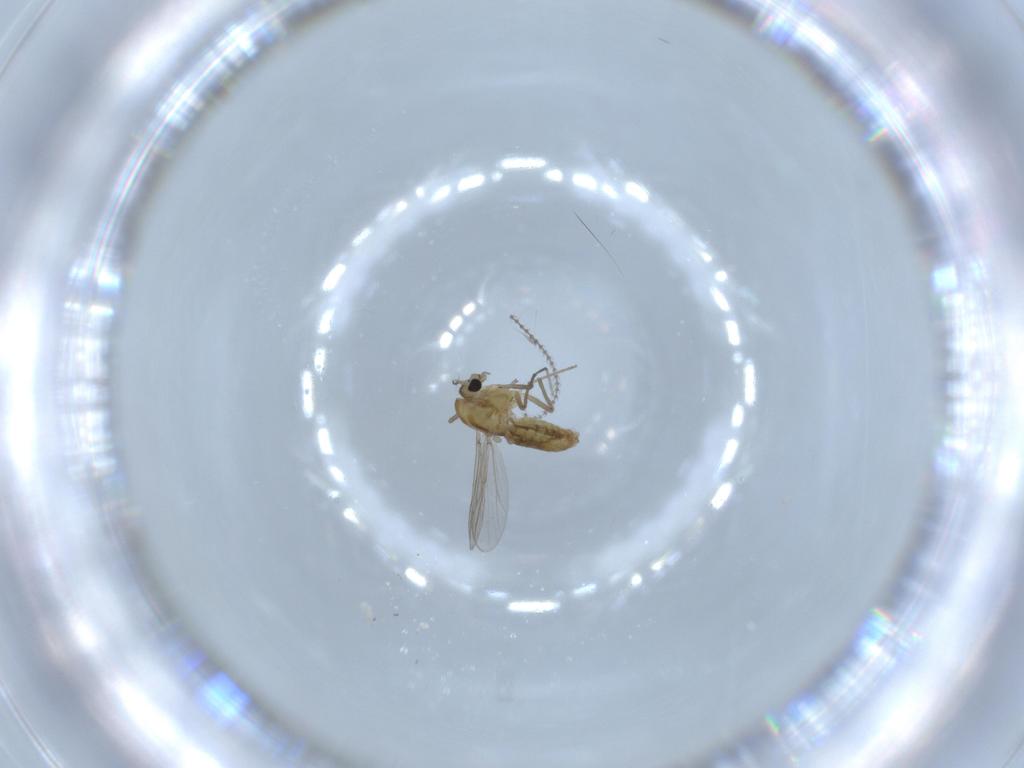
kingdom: Animalia
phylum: Arthropoda
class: Insecta
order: Diptera
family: Chironomidae
